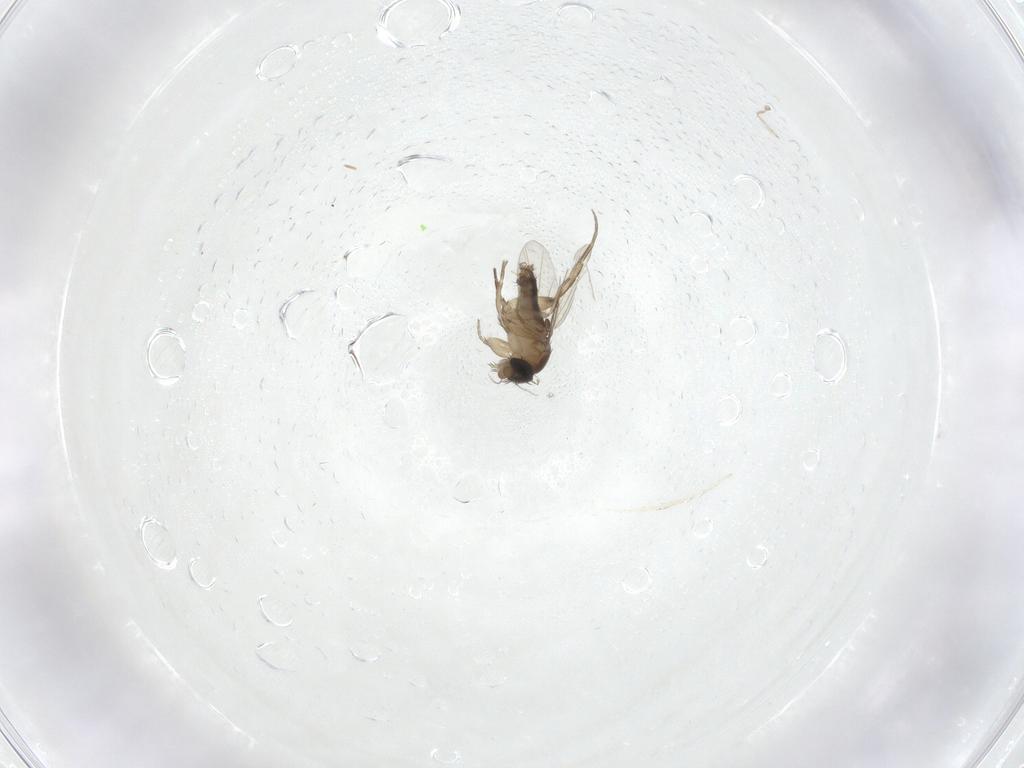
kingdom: Animalia
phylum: Arthropoda
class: Insecta
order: Diptera
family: Phoridae
